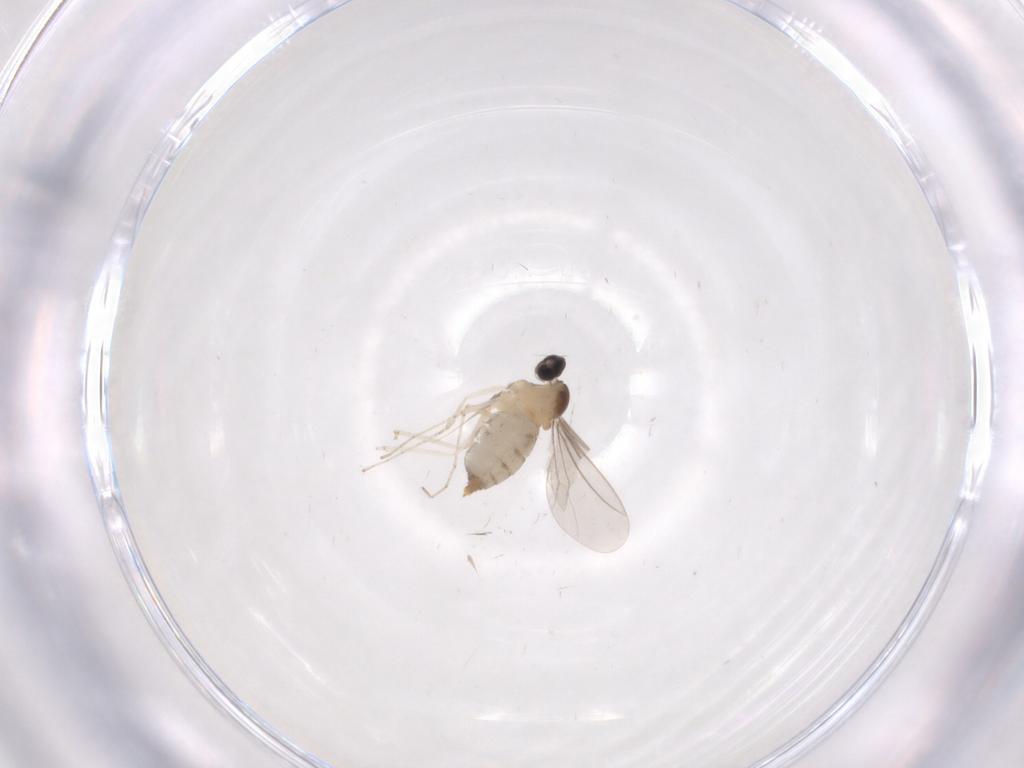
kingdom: Animalia
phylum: Arthropoda
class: Insecta
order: Diptera
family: Cecidomyiidae
